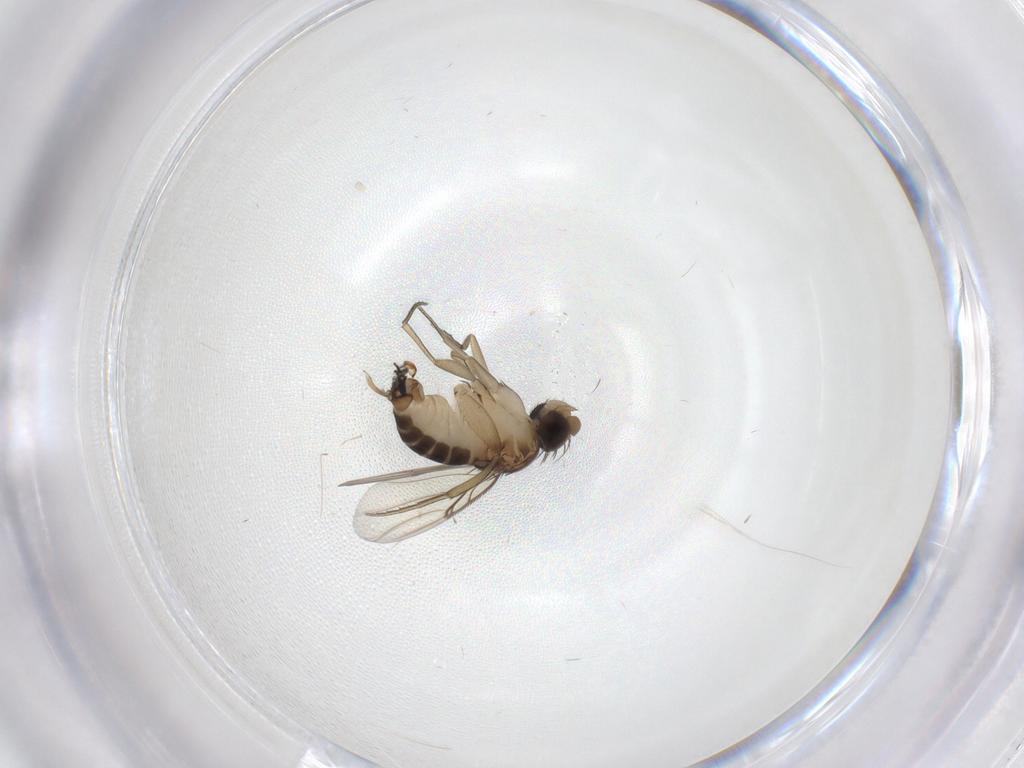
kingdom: Animalia
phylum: Arthropoda
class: Insecta
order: Diptera
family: Phoridae
